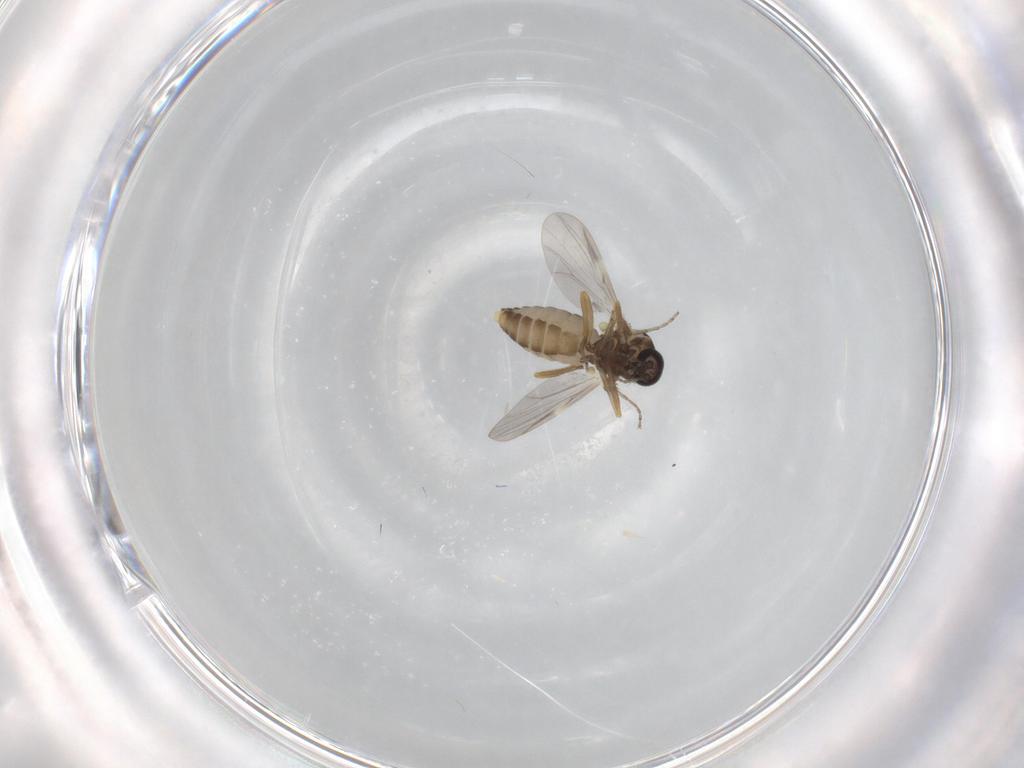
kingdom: Animalia
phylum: Arthropoda
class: Insecta
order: Diptera
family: Ceratopogonidae
